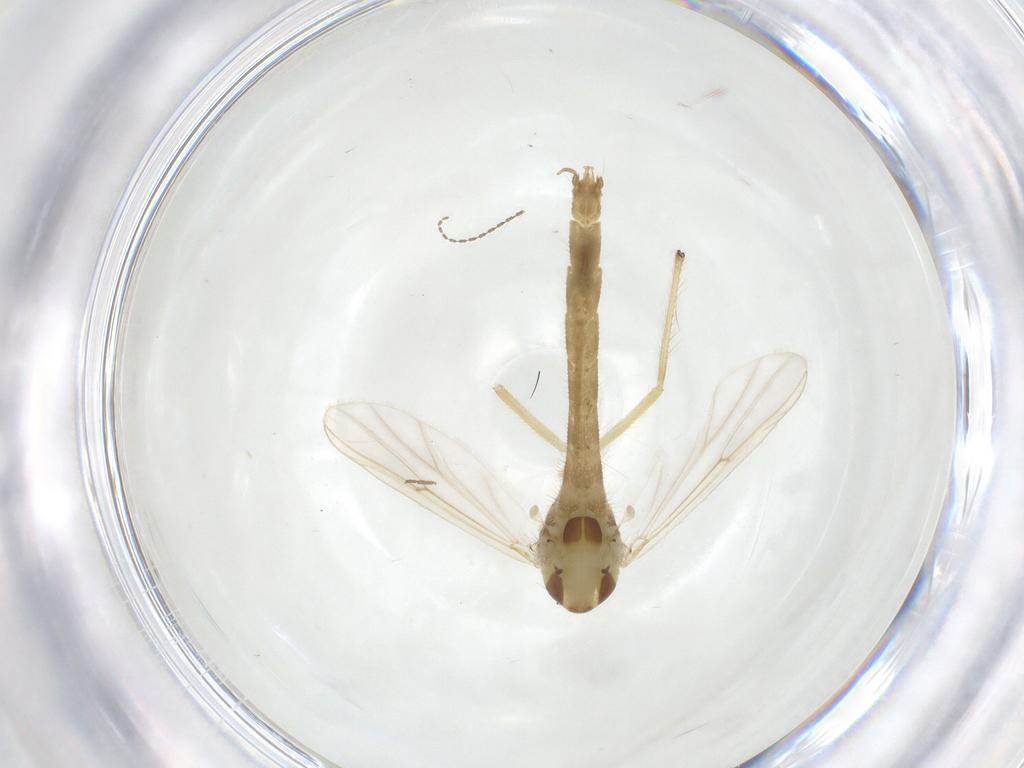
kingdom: Animalia
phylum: Arthropoda
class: Insecta
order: Diptera
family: Chironomidae
